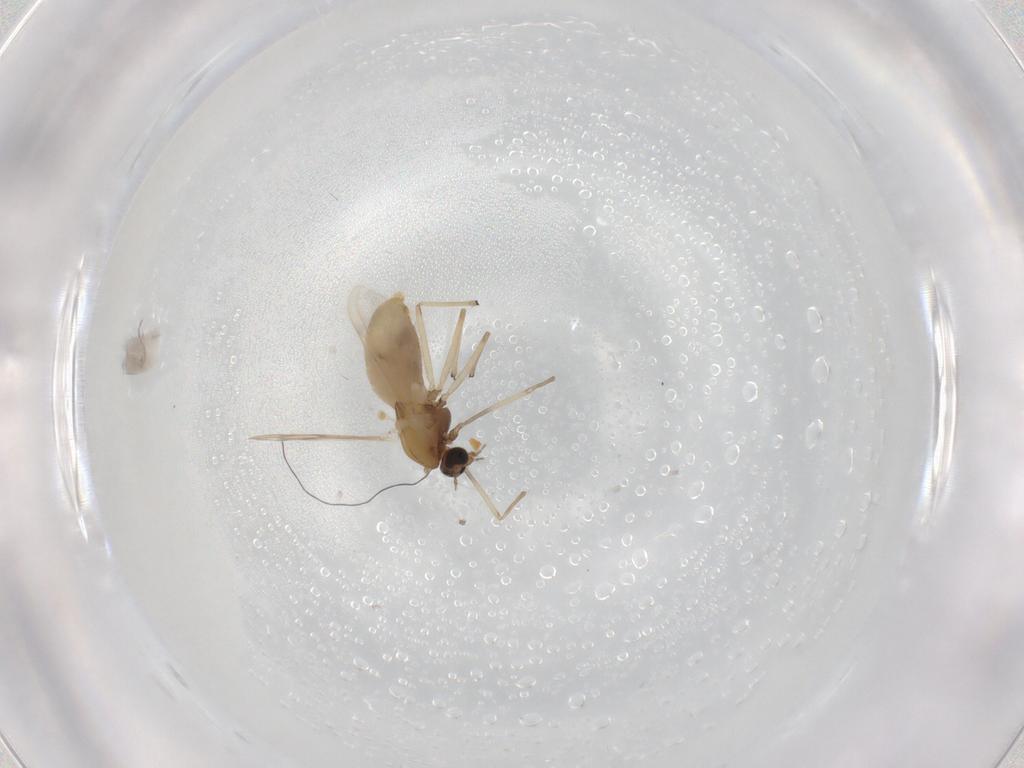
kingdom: Animalia
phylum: Arthropoda
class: Insecta
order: Diptera
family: Chironomidae
